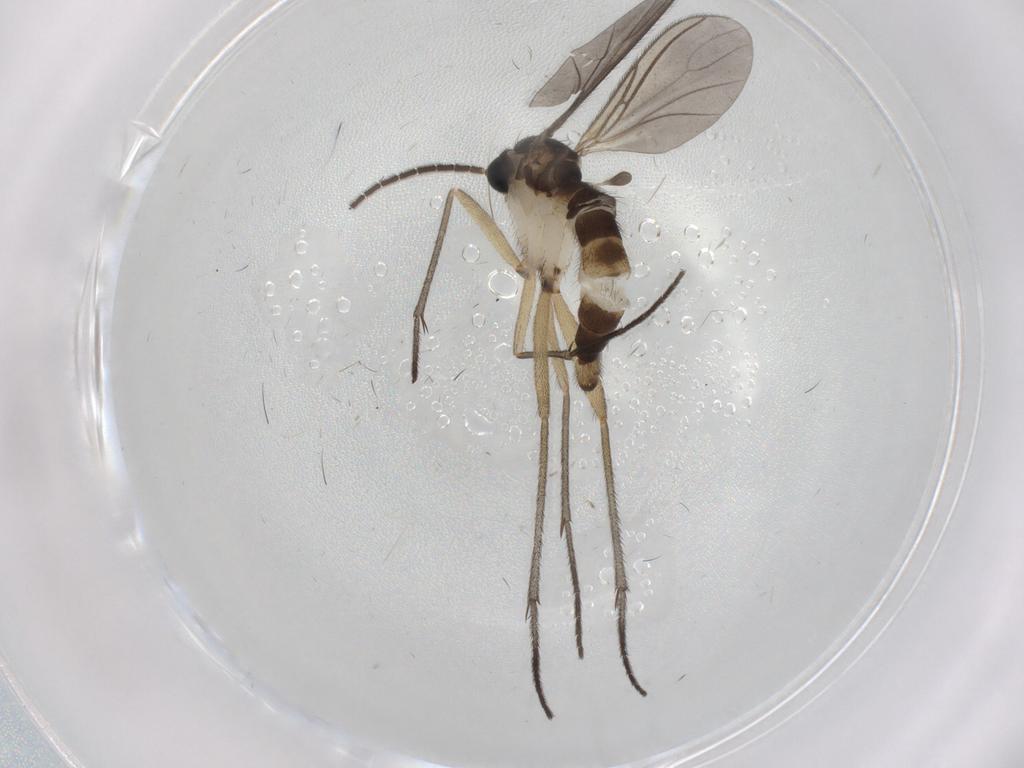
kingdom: Animalia
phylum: Arthropoda
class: Insecta
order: Diptera
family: Sciaridae
